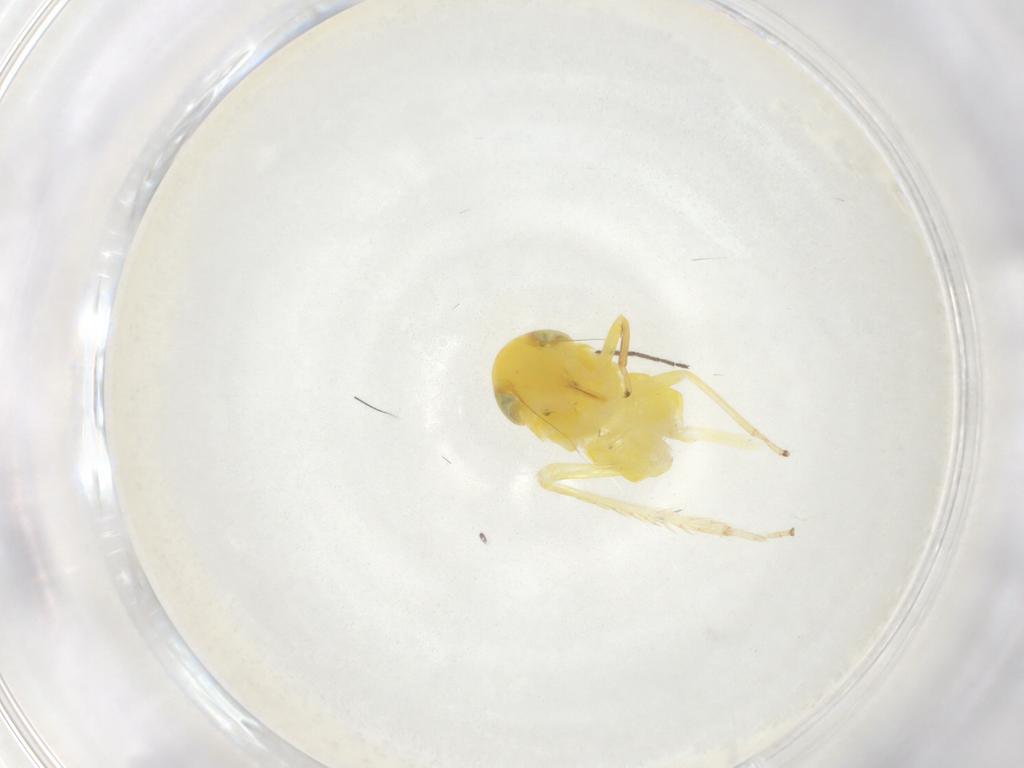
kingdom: Animalia
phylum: Arthropoda
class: Insecta
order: Hemiptera
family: Cicadellidae
